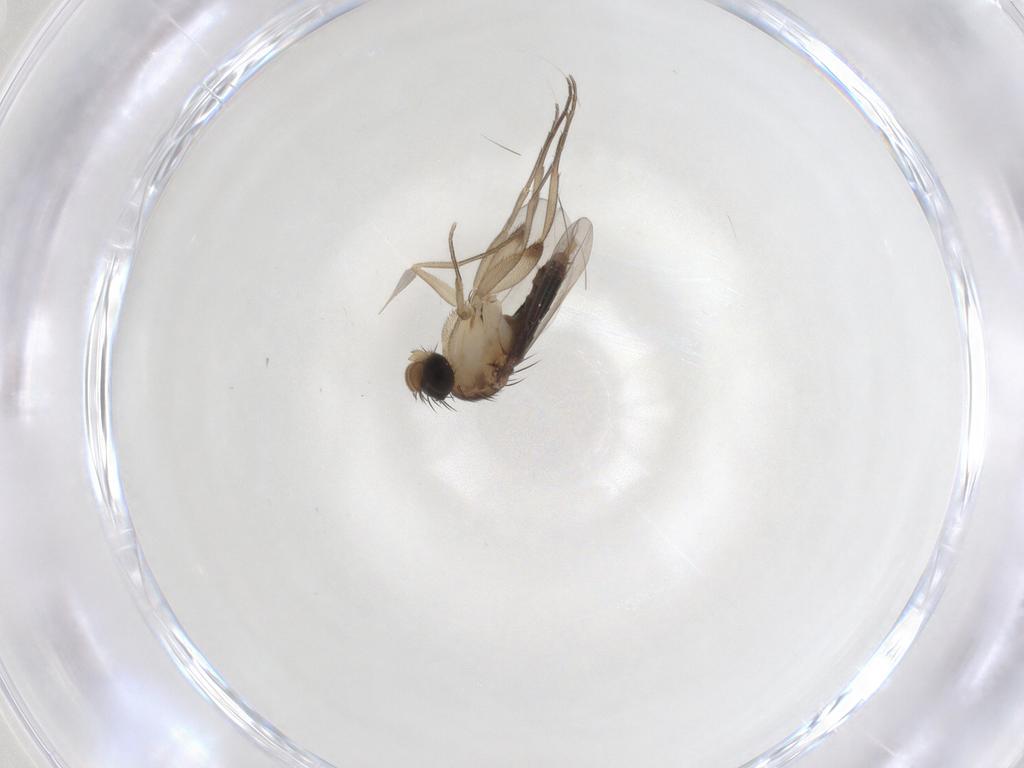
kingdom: Animalia
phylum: Arthropoda
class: Insecta
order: Diptera
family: Phoridae
